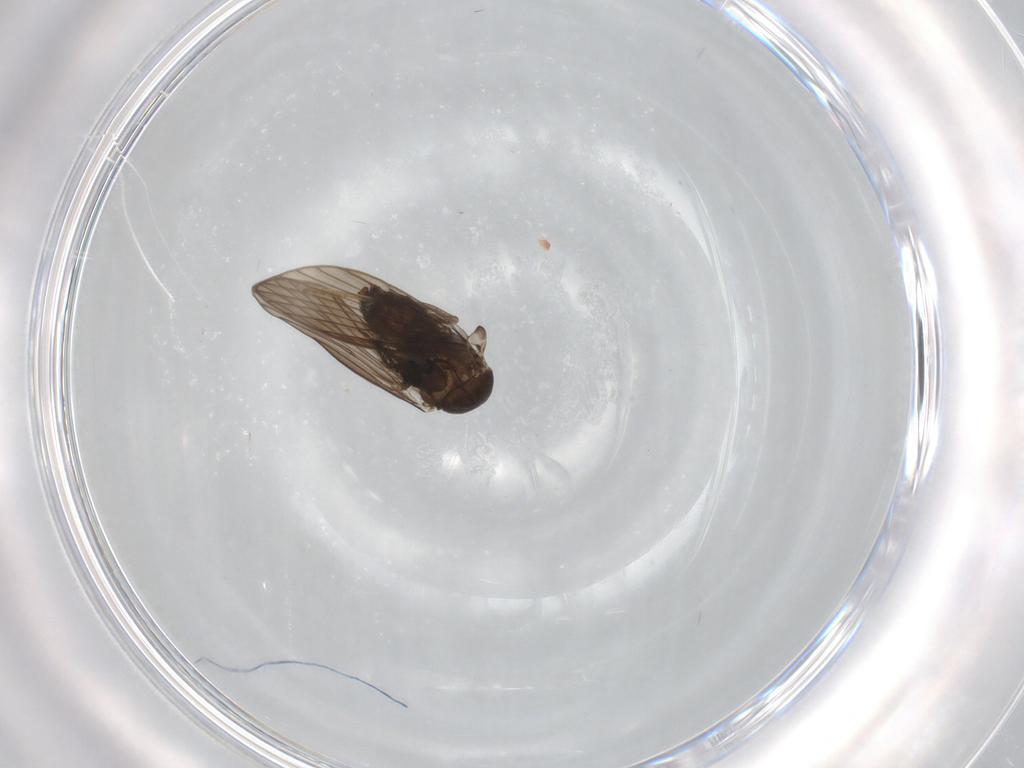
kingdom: Animalia
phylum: Arthropoda
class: Insecta
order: Diptera
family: Psychodidae
